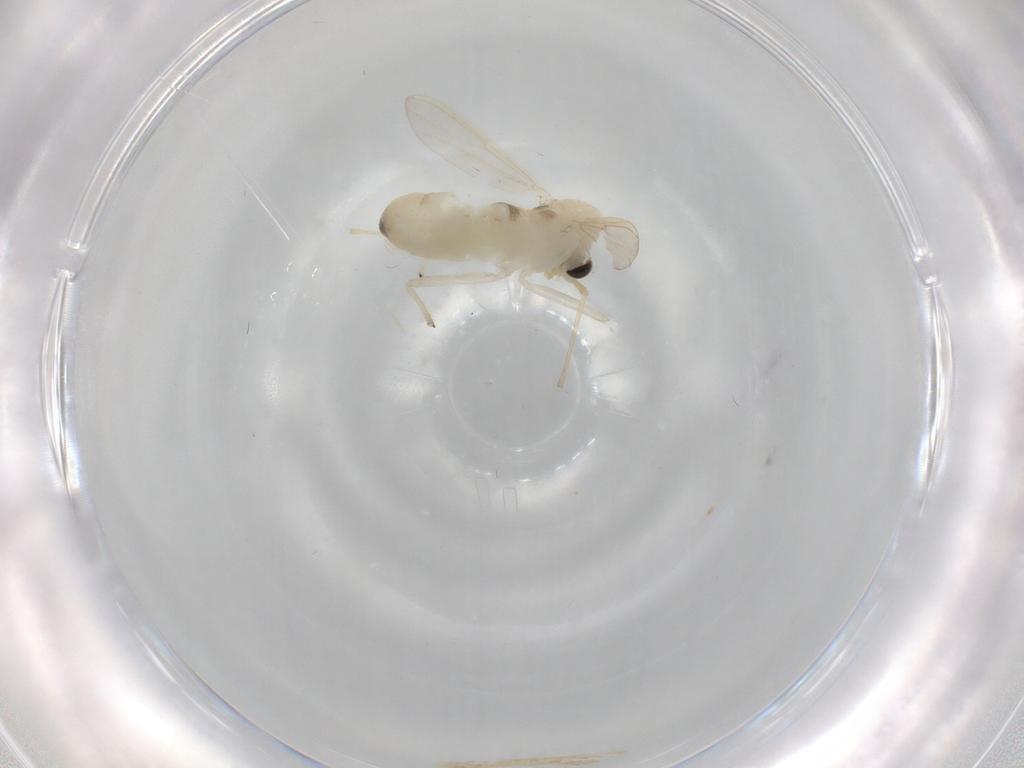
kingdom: Animalia
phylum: Arthropoda
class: Insecta
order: Diptera
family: Chironomidae
